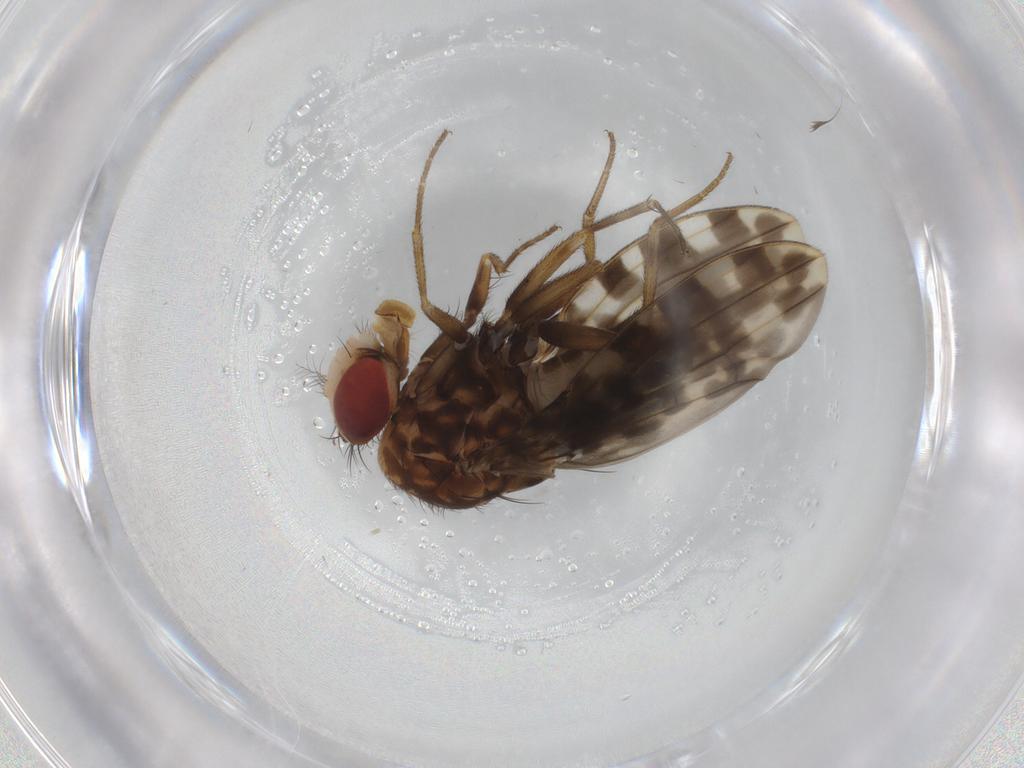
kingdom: Animalia
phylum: Arthropoda
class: Insecta
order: Diptera
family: Drosophilidae
